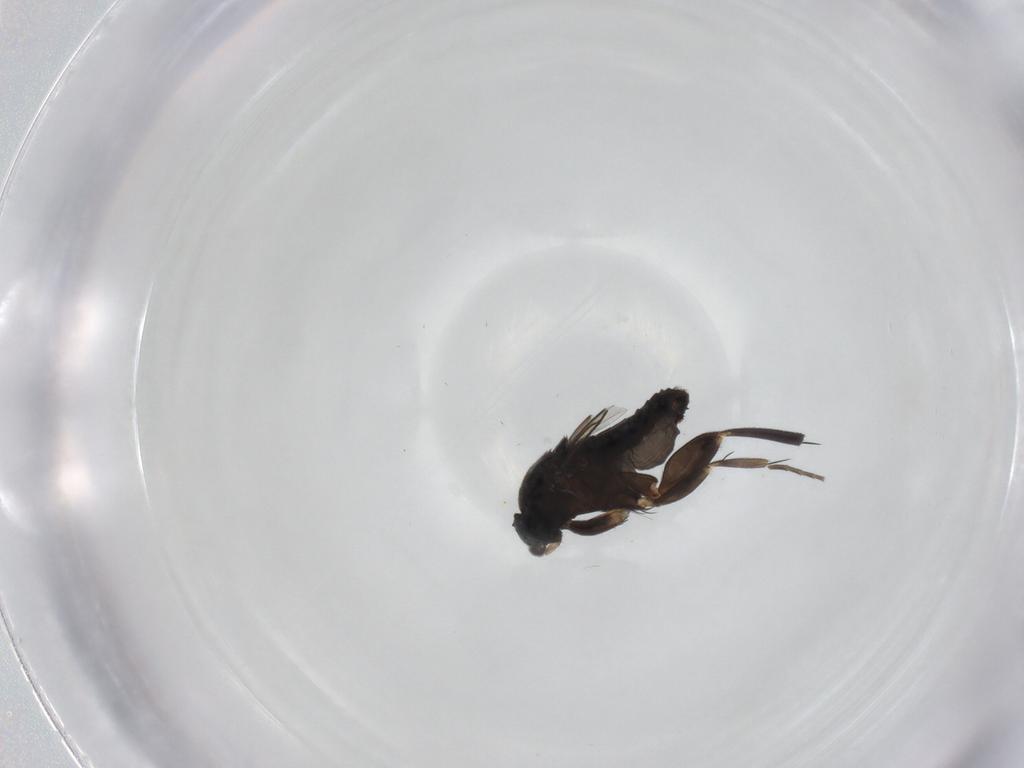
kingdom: Animalia
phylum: Arthropoda
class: Insecta
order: Diptera
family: Phoridae
